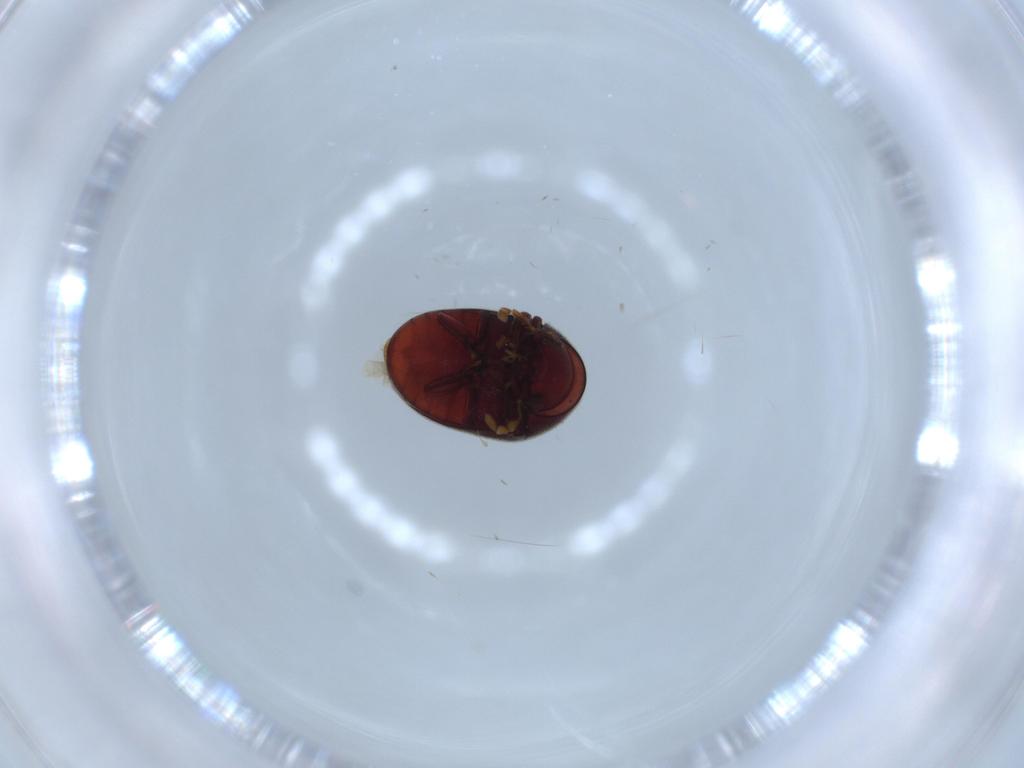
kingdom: Animalia
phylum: Arthropoda
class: Insecta
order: Coleoptera
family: Ptinidae
